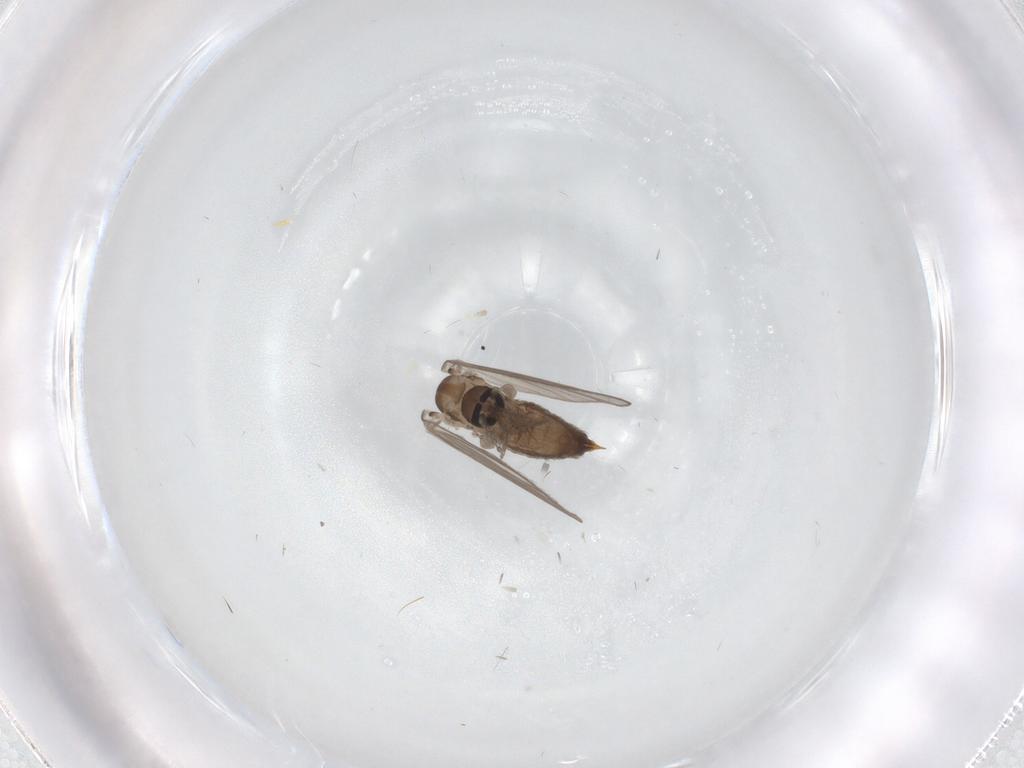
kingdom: Animalia
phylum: Arthropoda
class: Insecta
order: Diptera
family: Psychodidae
